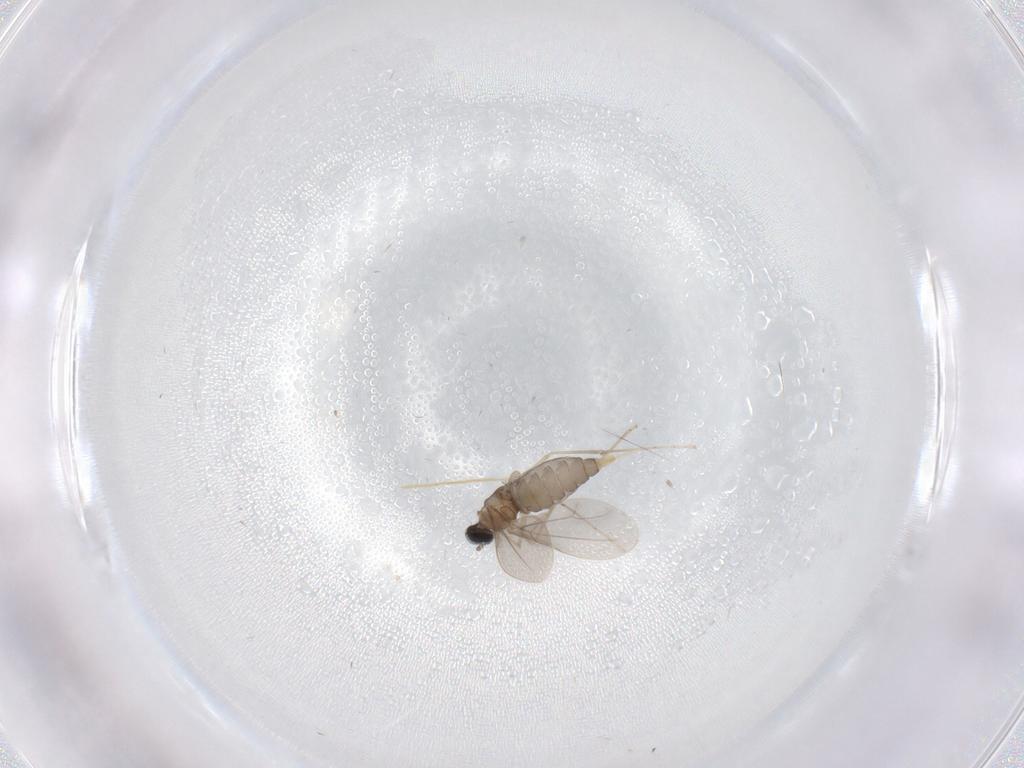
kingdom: Animalia
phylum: Arthropoda
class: Insecta
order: Diptera
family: Cecidomyiidae
